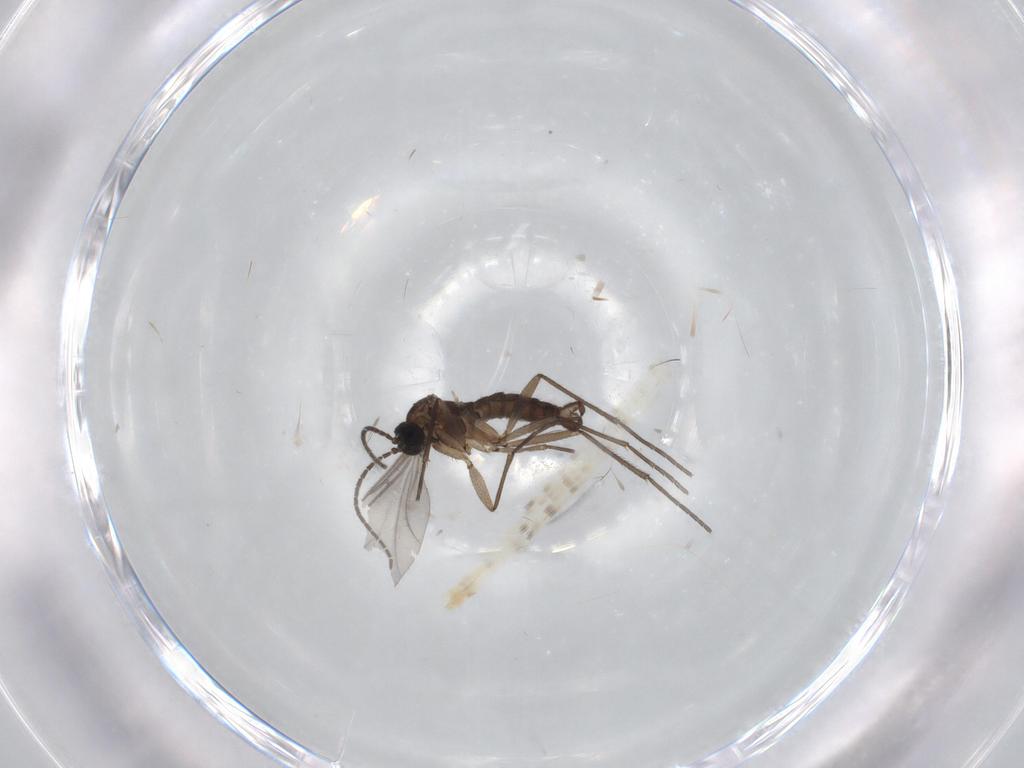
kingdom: Animalia
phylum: Arthropoda
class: Insecta
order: Diptera
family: Sciaridae
